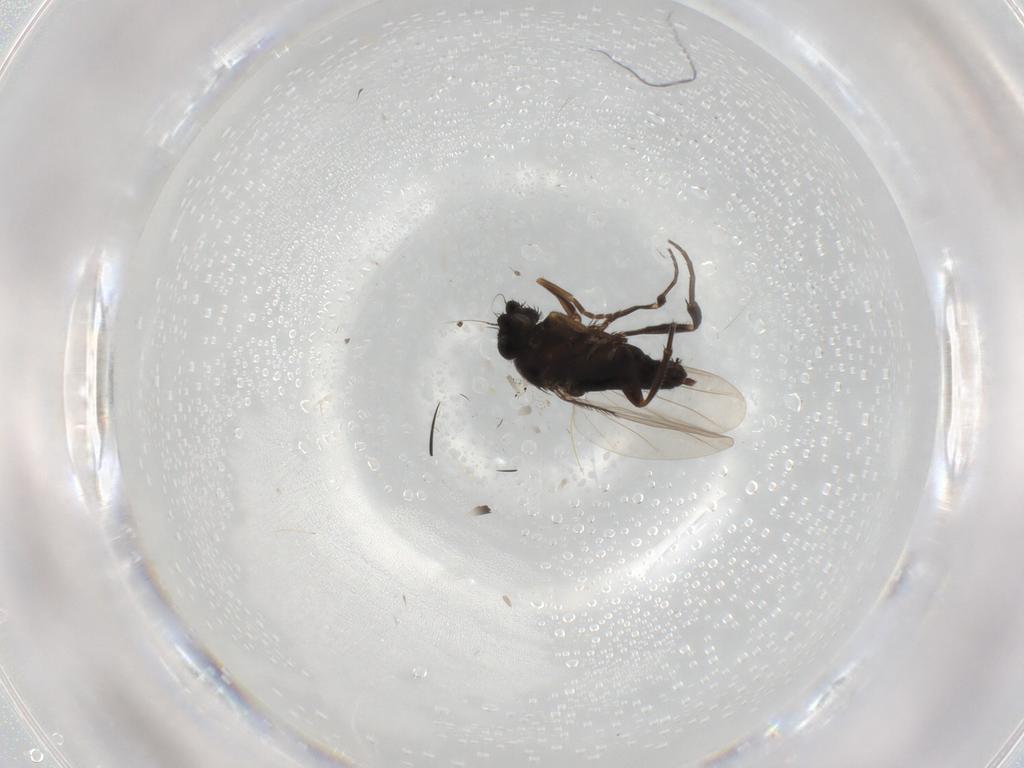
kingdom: Animalia
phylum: Arthropoda
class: Insecta
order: Diptera
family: Phoridae
